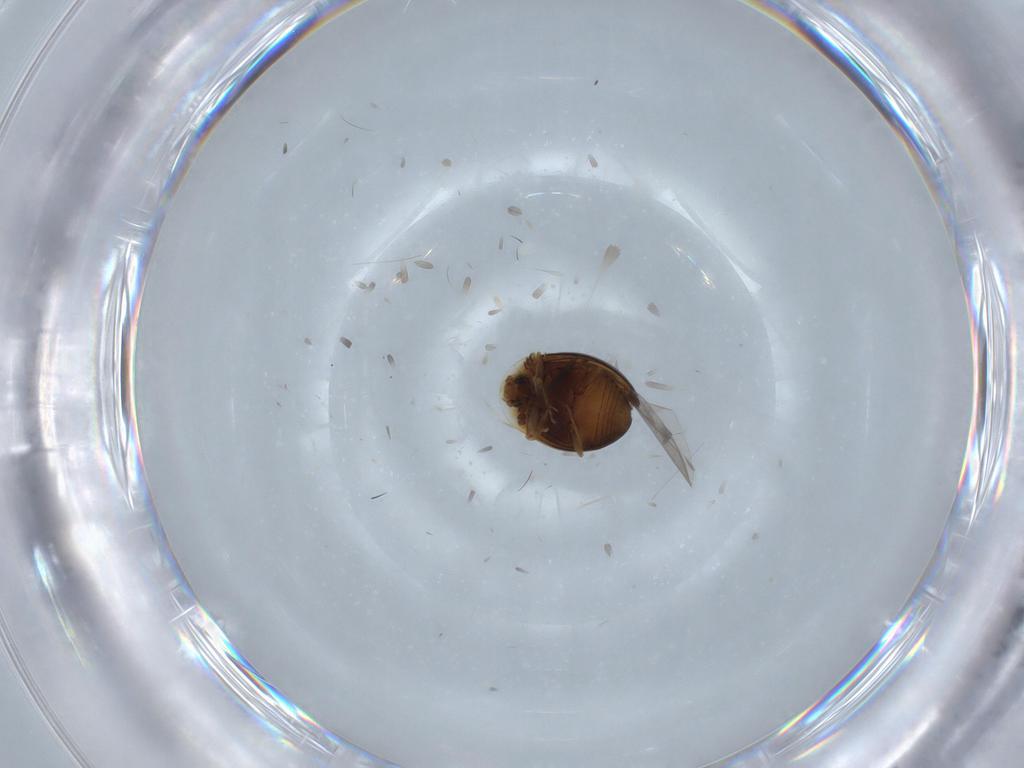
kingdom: Animalia
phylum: Arthropoda
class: Insecta
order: Coleoptera
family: Corylophidae
